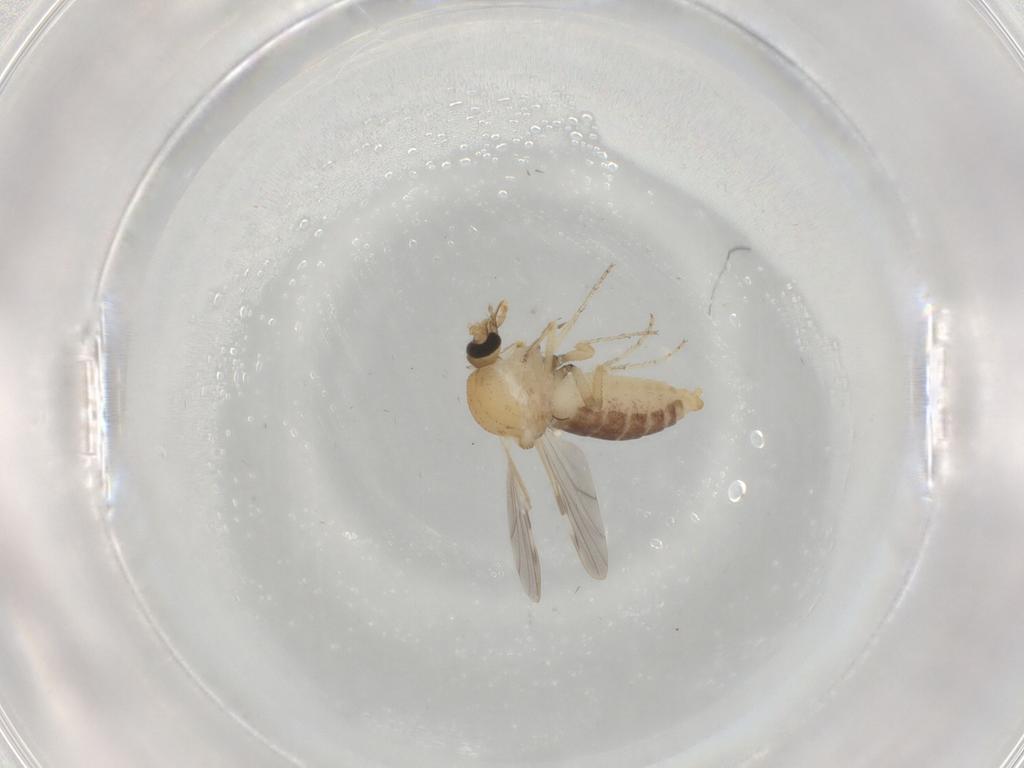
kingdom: Animalia
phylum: Arthropoda
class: Insecta
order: Diptera
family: Ceratopogonidae
